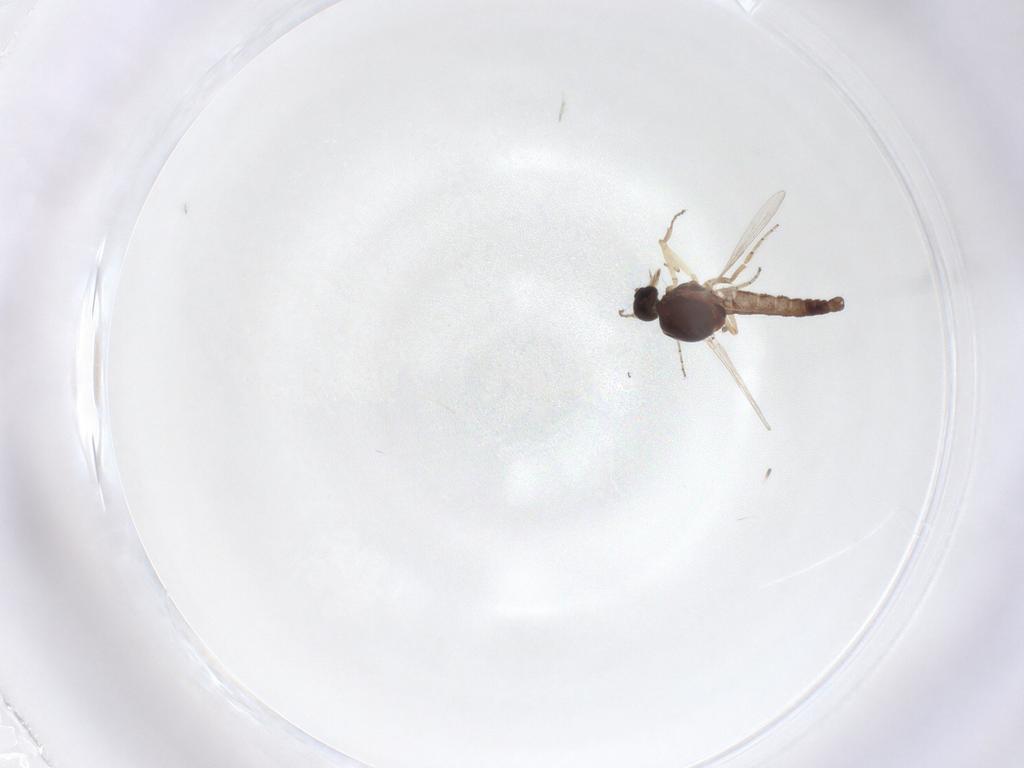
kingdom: Animalia
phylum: Arthropoda
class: Insecta
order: Diptera
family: Ceratopogonidae
